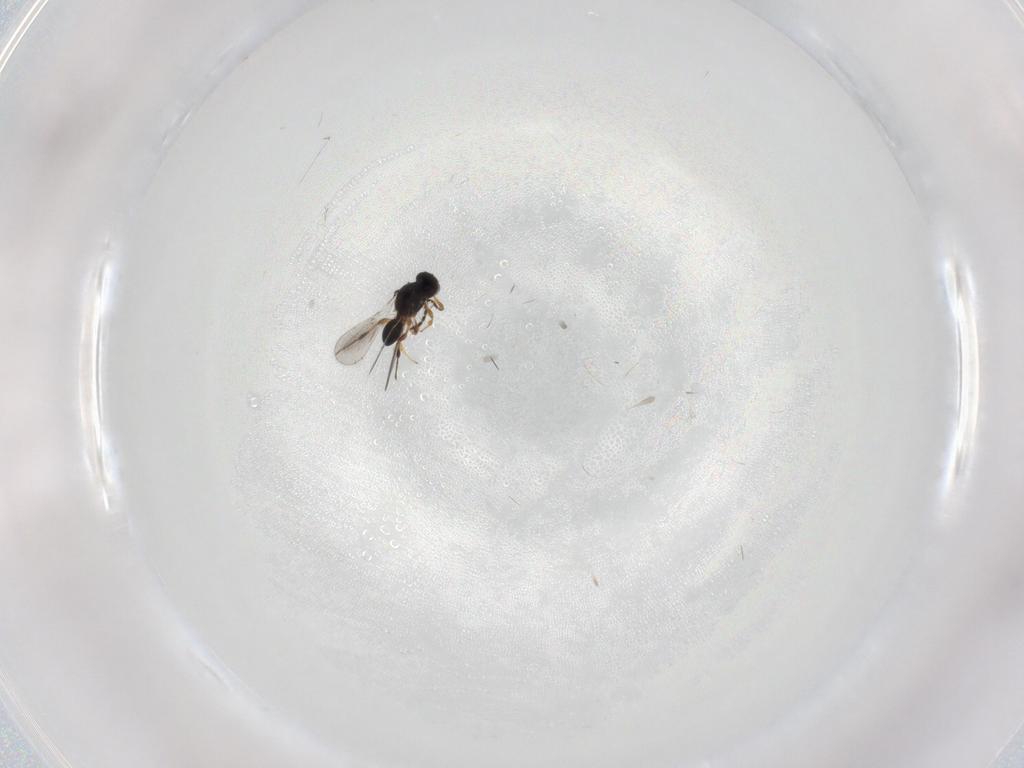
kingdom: Animalia
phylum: Arthropoda
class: Insecta
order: Hymenoptera
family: Platygastridae
